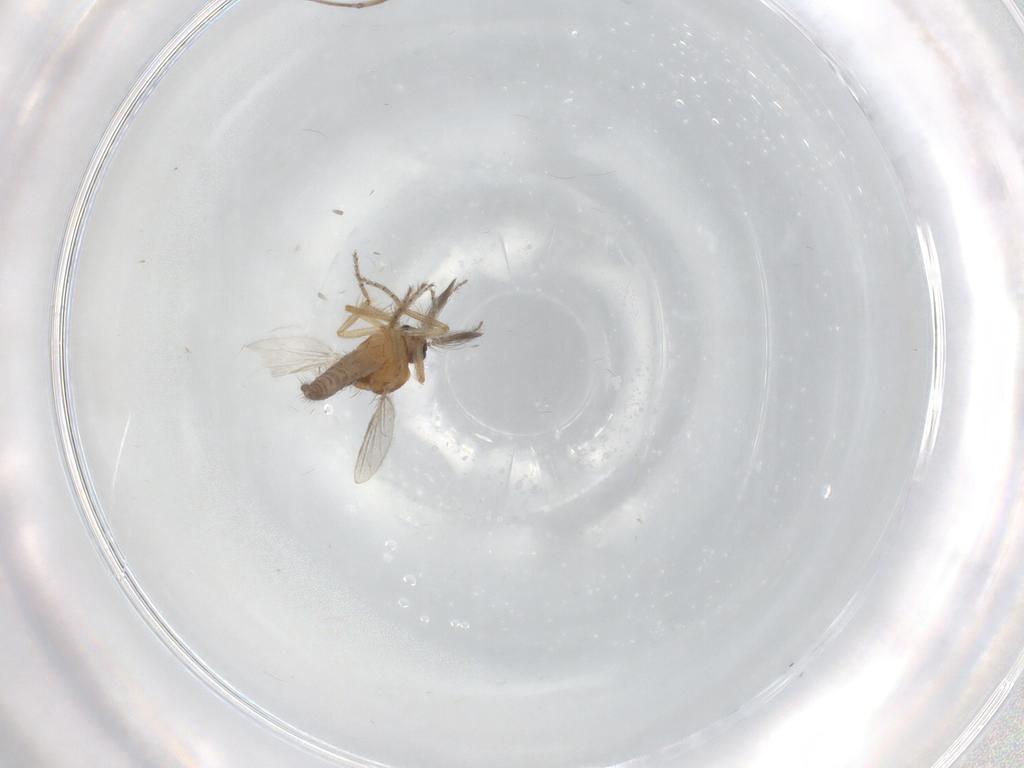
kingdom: Animalia
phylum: Arthropoda
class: Insecta
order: Diptera
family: Ceratopogonidae
